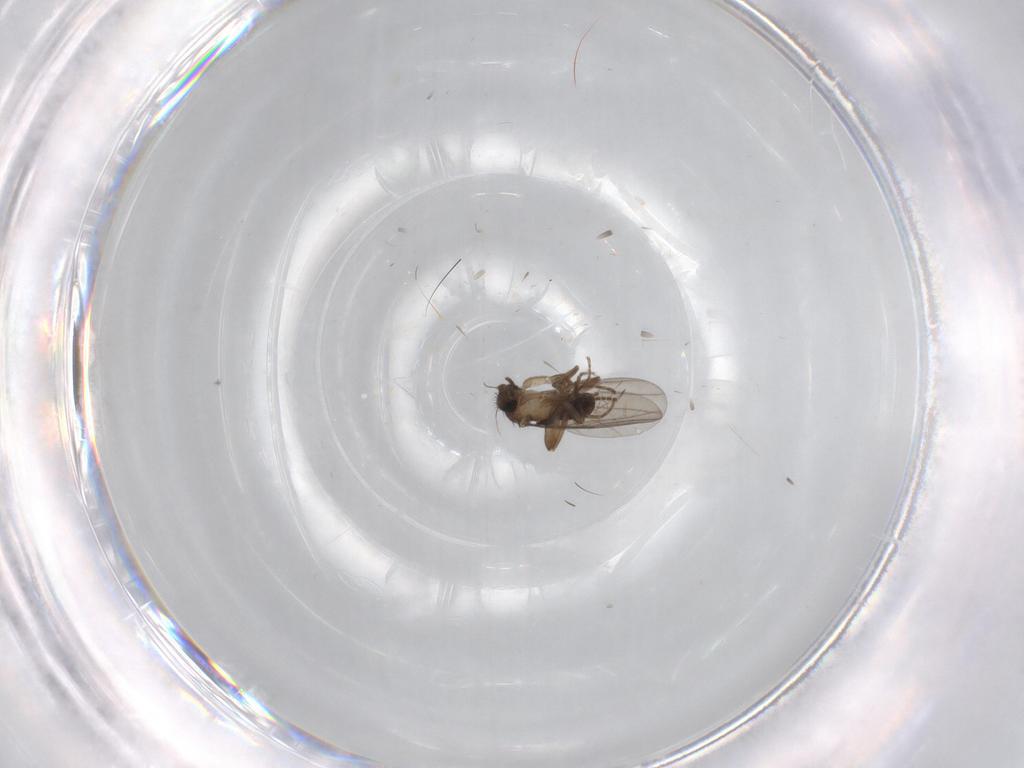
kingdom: Animalia
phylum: Arthropoda
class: Insecta
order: Diptera
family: Cecidomyiidae
